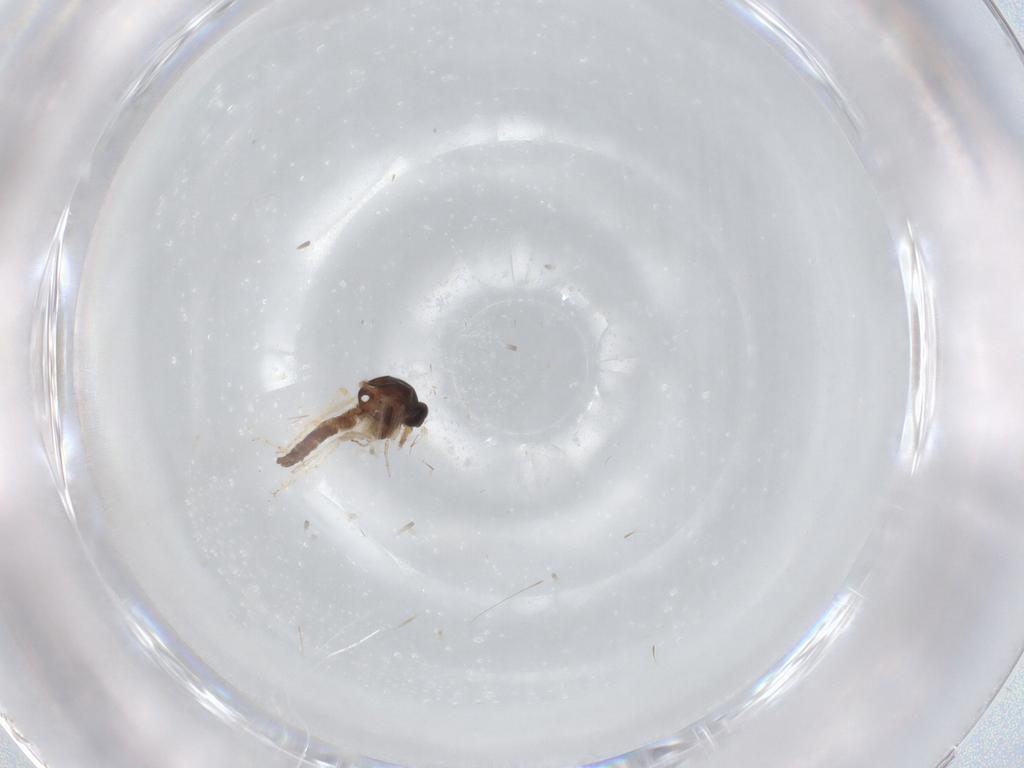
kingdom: Animalia
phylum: Arthropoda
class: Insecta
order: Diptera
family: Ceratopogonidae
